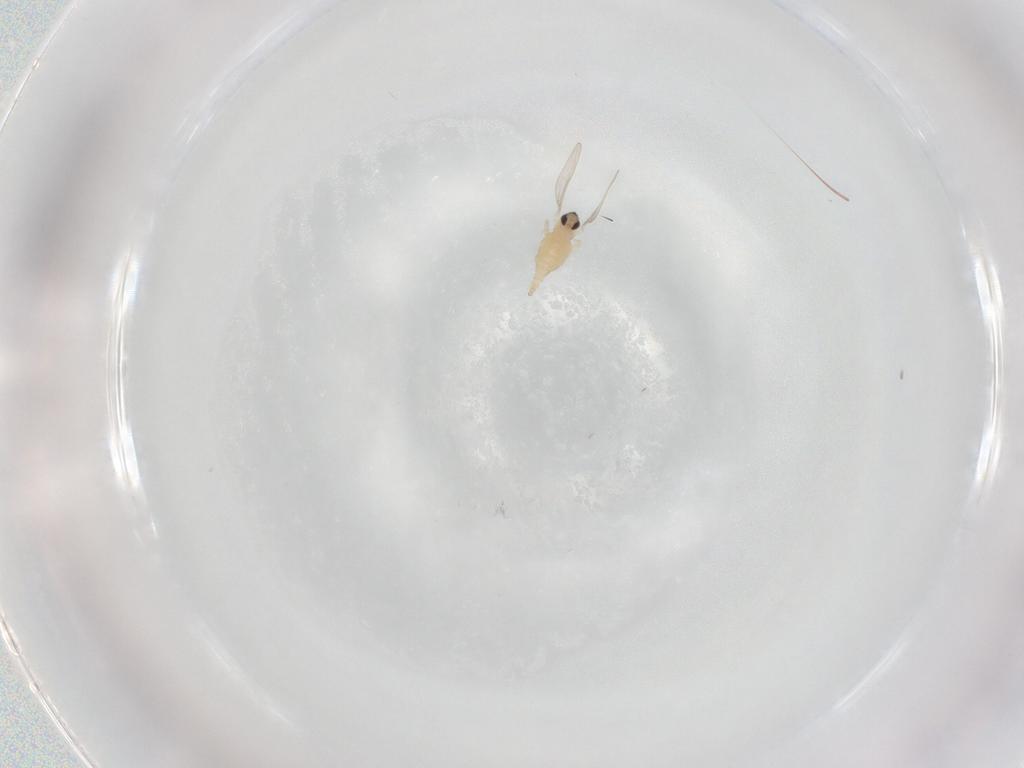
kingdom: Animalia
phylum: Arthropoda
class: Insecta
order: Diptera
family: Cecidomyiidae
